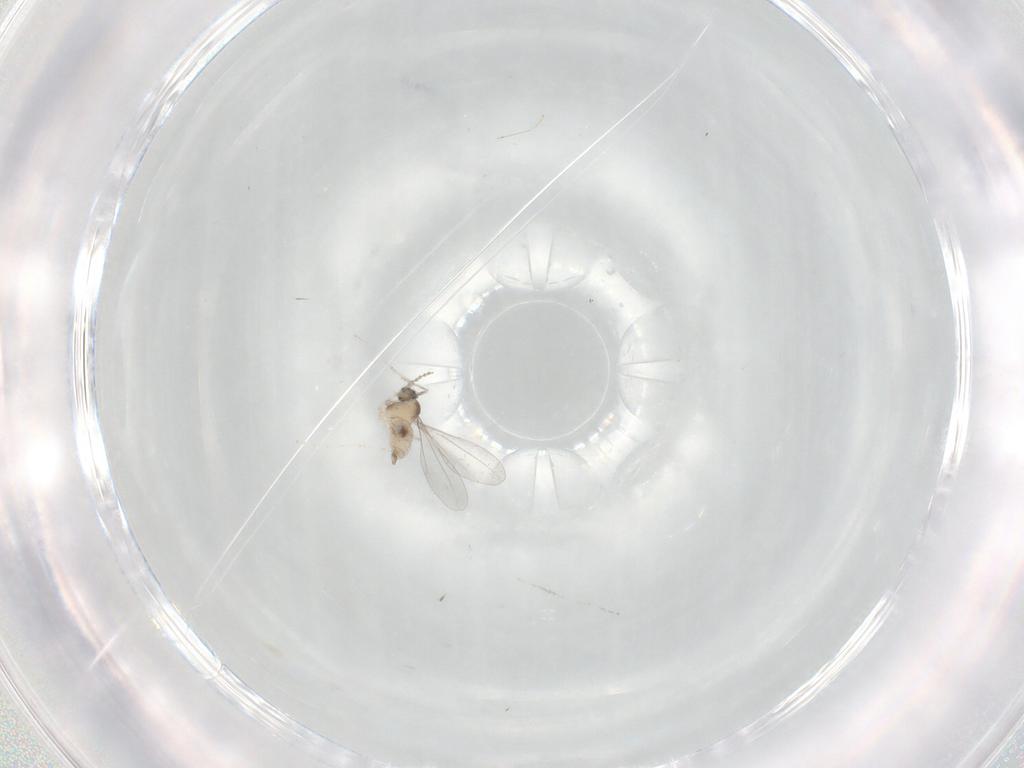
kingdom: Animalia
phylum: Arthropoda
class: Insecta
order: Diptera
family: Cecidomyiidae
